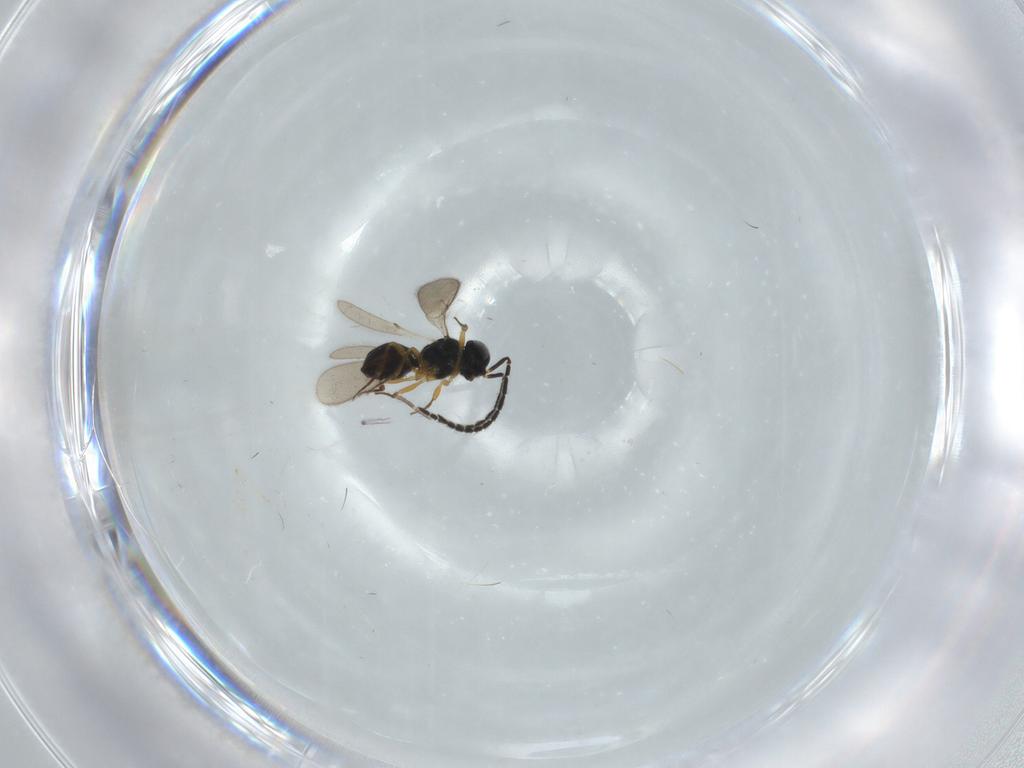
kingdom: Animalia
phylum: Arthropoda
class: Insecta
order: Hymenoptera
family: Scelionidae
